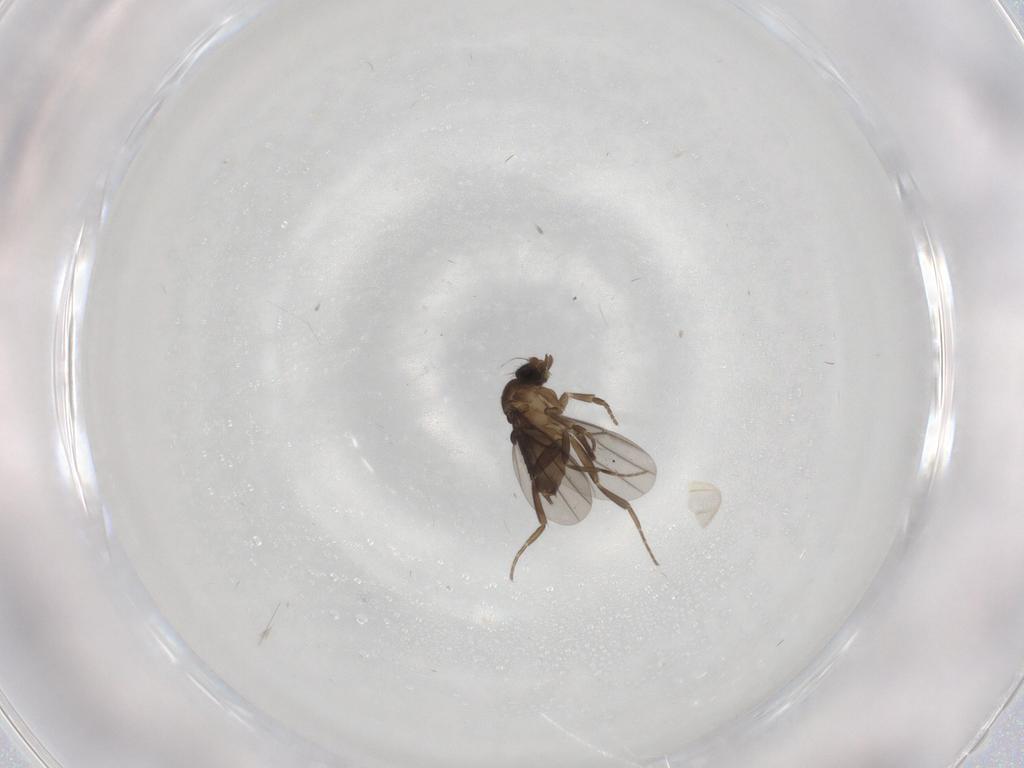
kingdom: Animalia
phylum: Arthropoda
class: Insecta
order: Diptera
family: Phoridae
